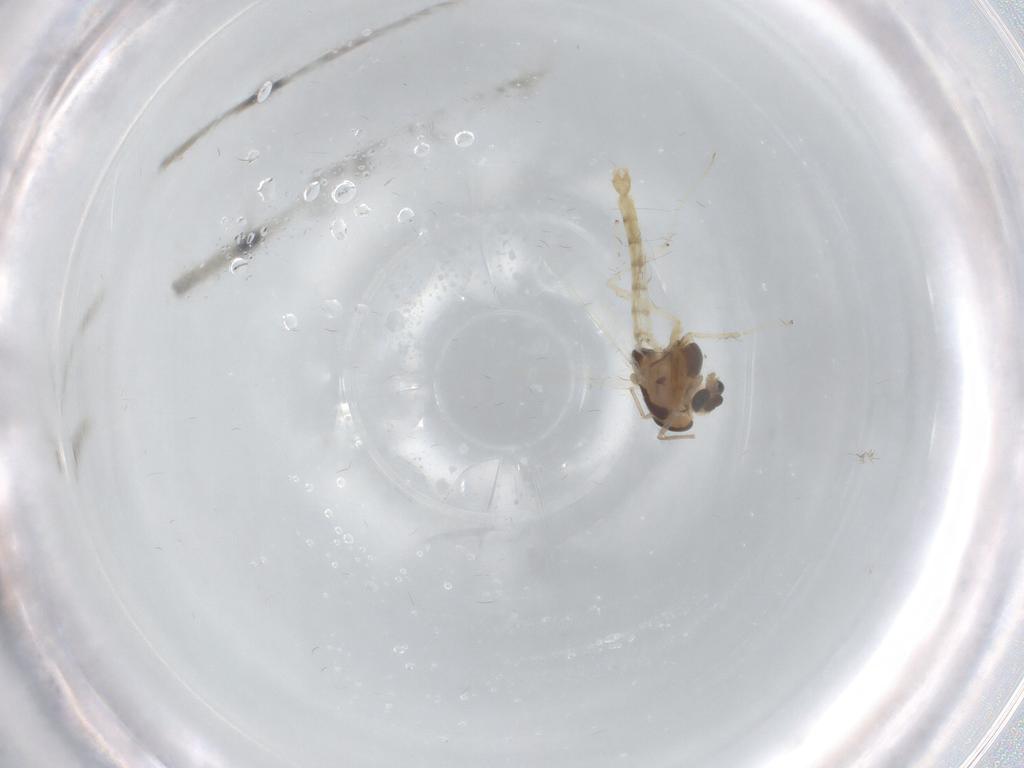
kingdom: Animalia
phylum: Arthropoda
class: Insecta
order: Diptera
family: Chironomidae
